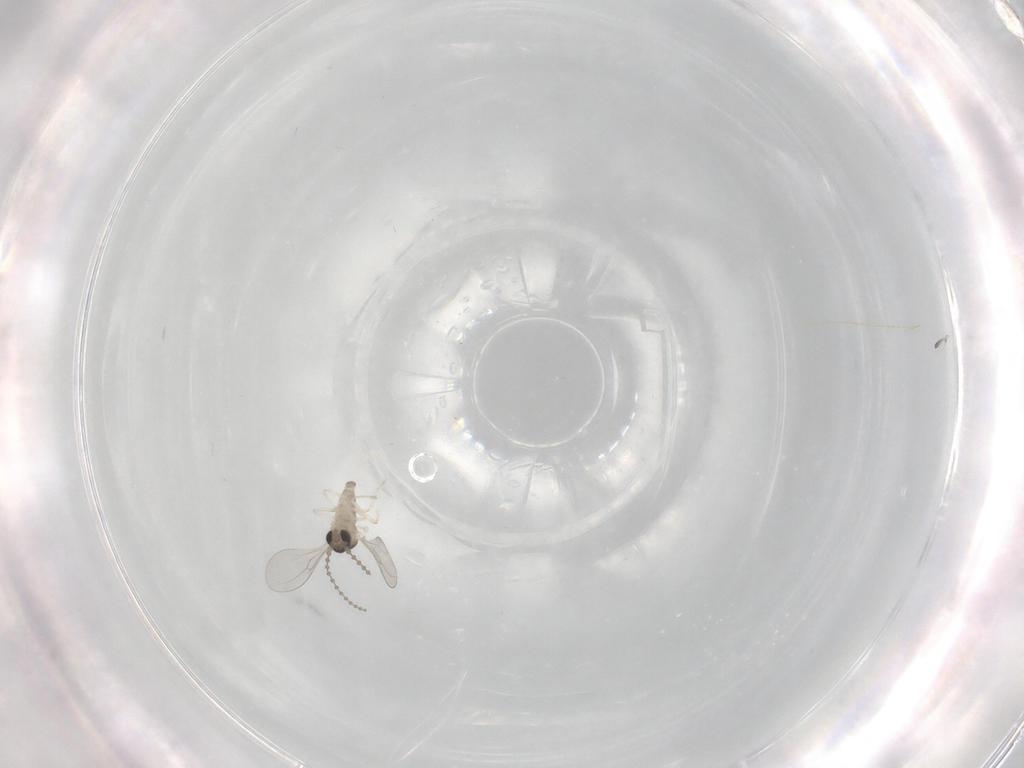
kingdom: Animalia
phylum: Arthropoda
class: Insecta
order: Diptera
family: Cecidomyiidae
